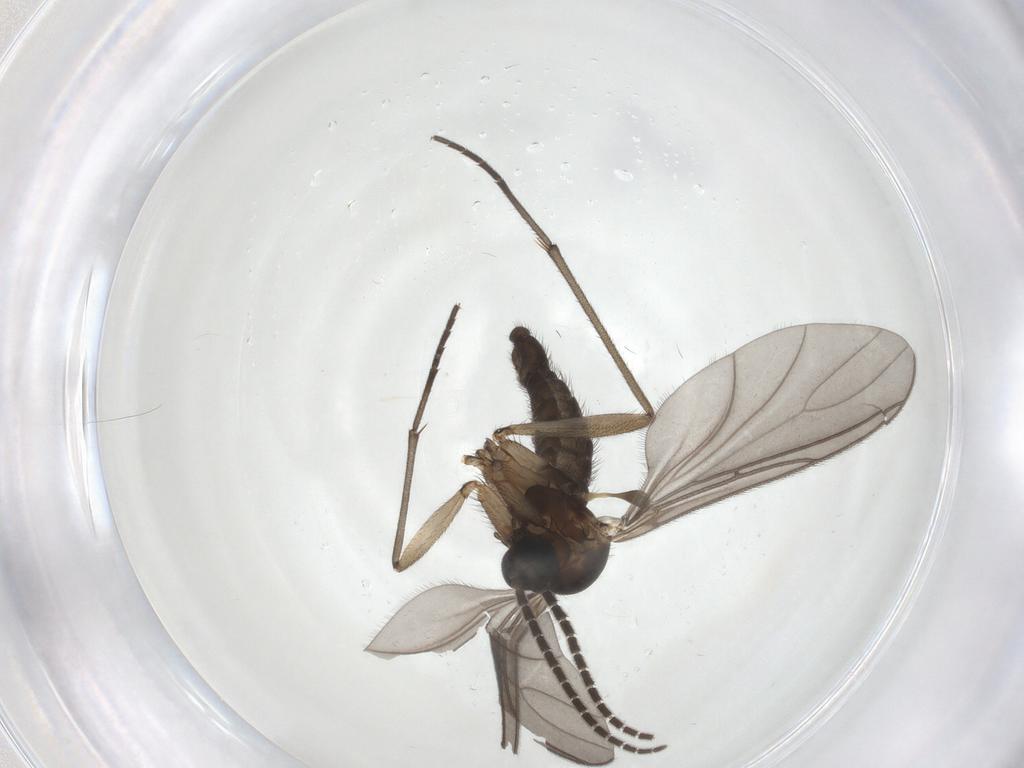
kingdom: Animalia
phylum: Arthropoda
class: Insecta
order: Diptera
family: Sciaridae
